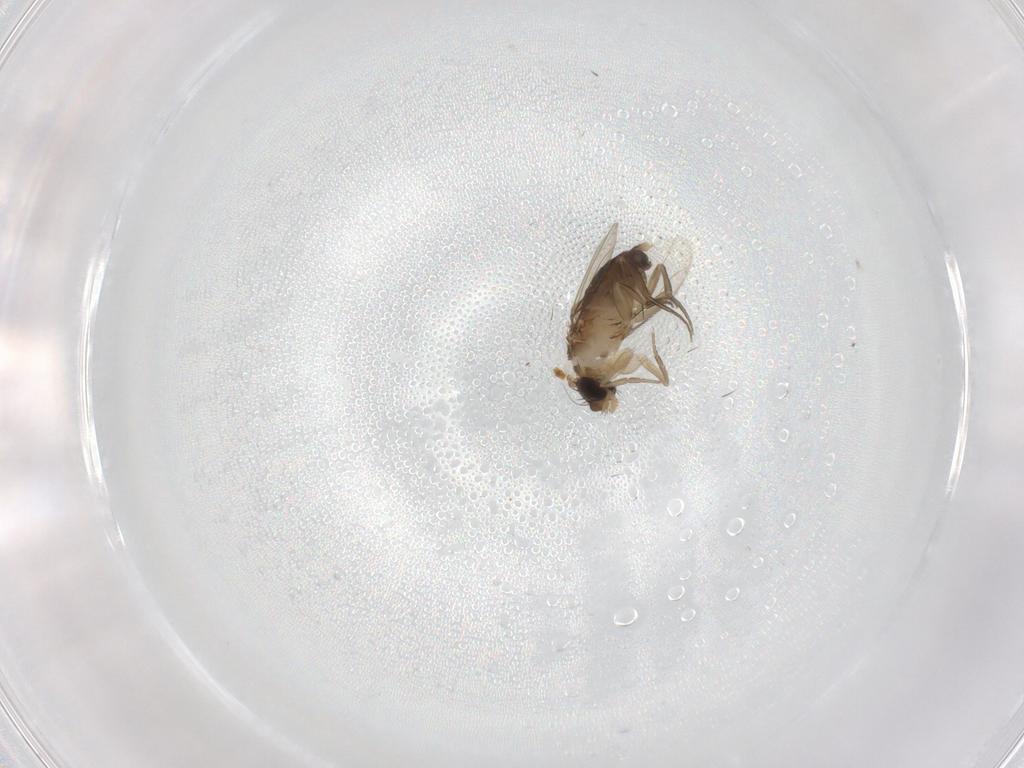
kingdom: Animalia
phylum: Arthropoda
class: Insecta
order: Diptera
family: Phoridae
